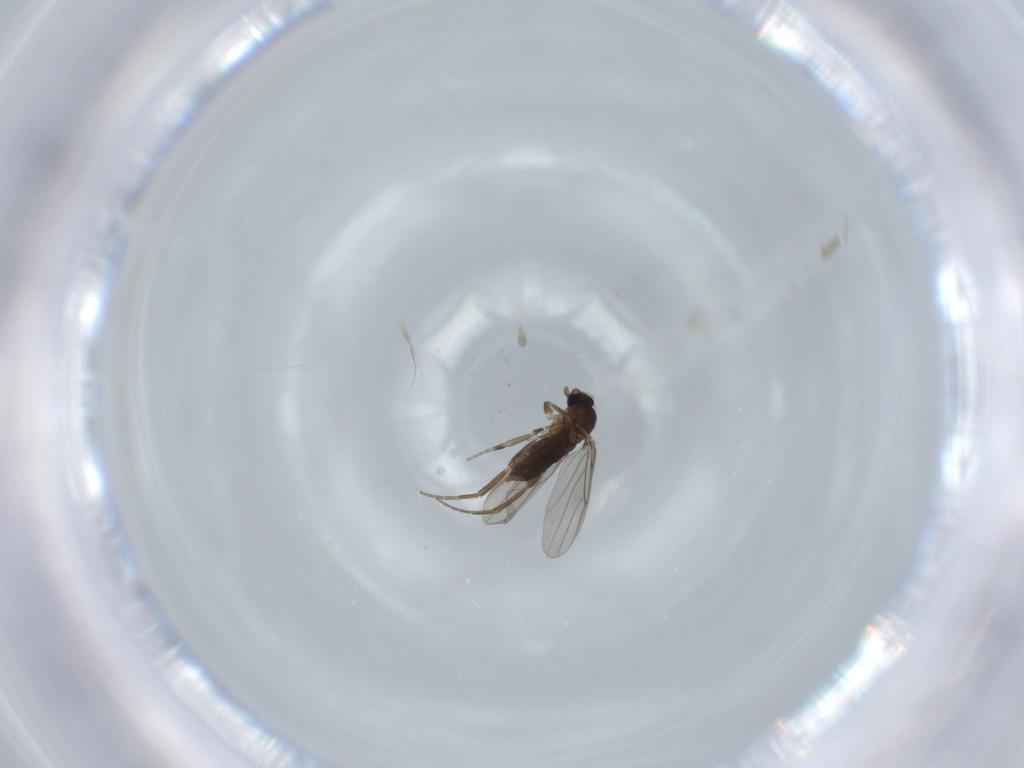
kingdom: Animalia
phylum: Arthropoda
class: Insecta
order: Diptera
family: Phoridae
